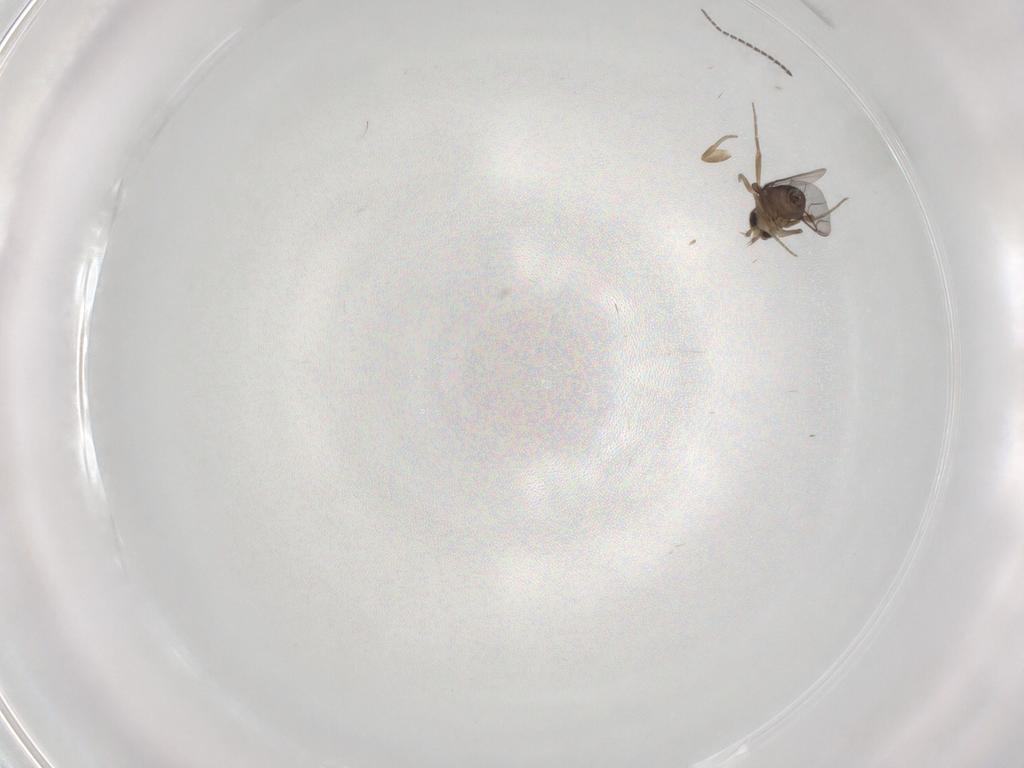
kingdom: Animalia
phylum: Arthropoda
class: Insecta
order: Diptera
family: Phoridae
